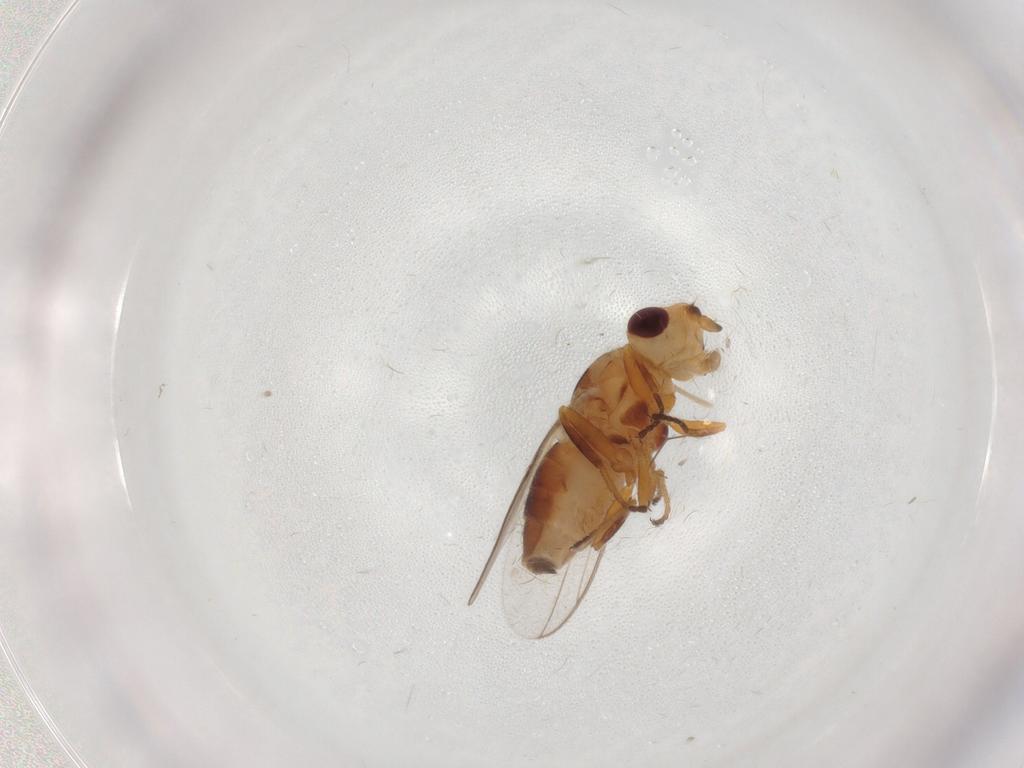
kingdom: Animalia
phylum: Arthropoda
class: Insecta
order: Diptera
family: Chloropidae
